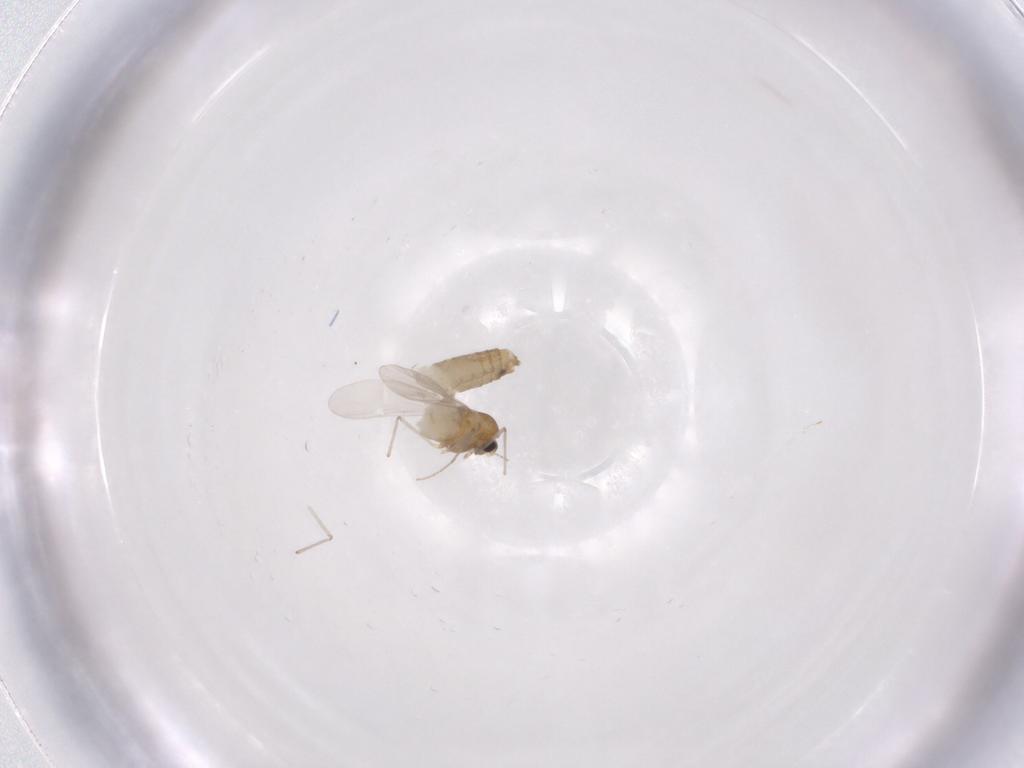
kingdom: Animalia
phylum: Arthropoda
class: Insecta
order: Diptera
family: Chironomidae
